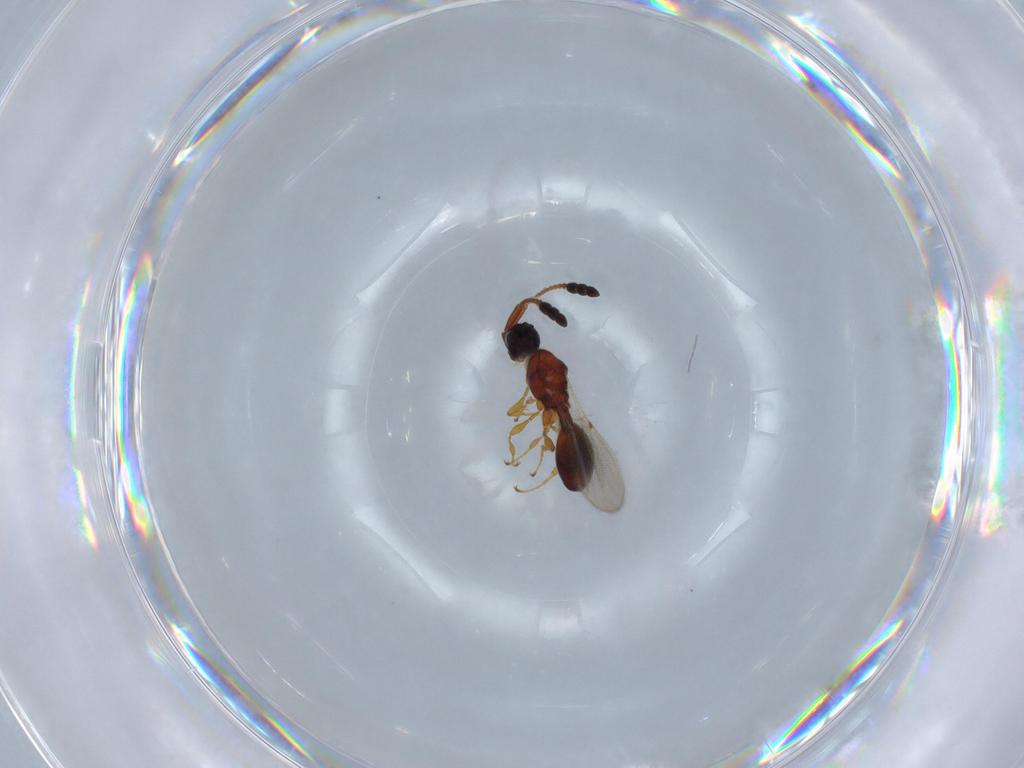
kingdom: Animalia
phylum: Arthropoda
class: Insecta
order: Hymenoptera
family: Diapriidae
